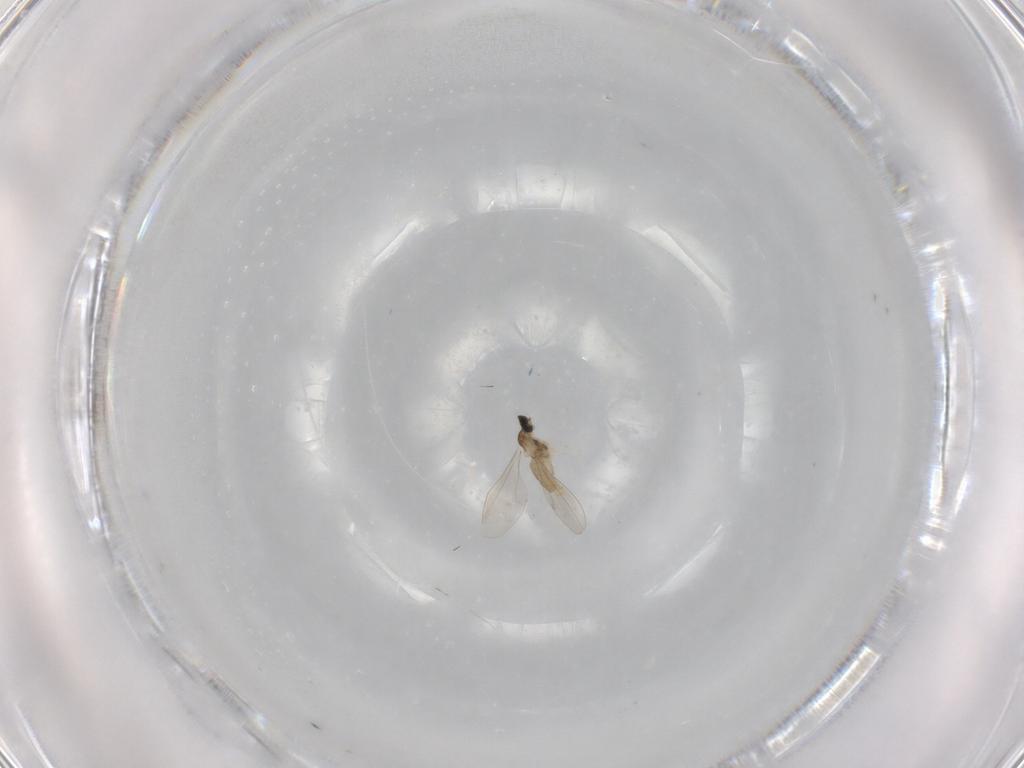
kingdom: Animalia
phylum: Arthropoda
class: Insecta
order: Diptera
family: Cecidomyiidae
